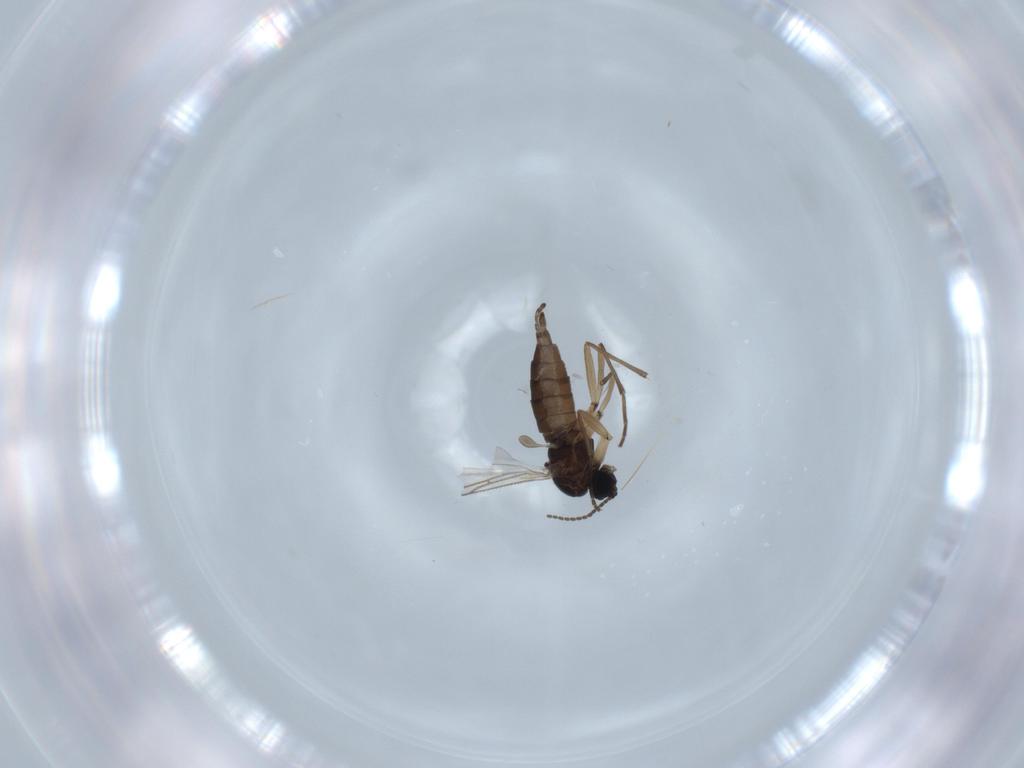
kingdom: Animalia
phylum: Arthropoda
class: Insecta
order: Diptera
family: Sciaridae
